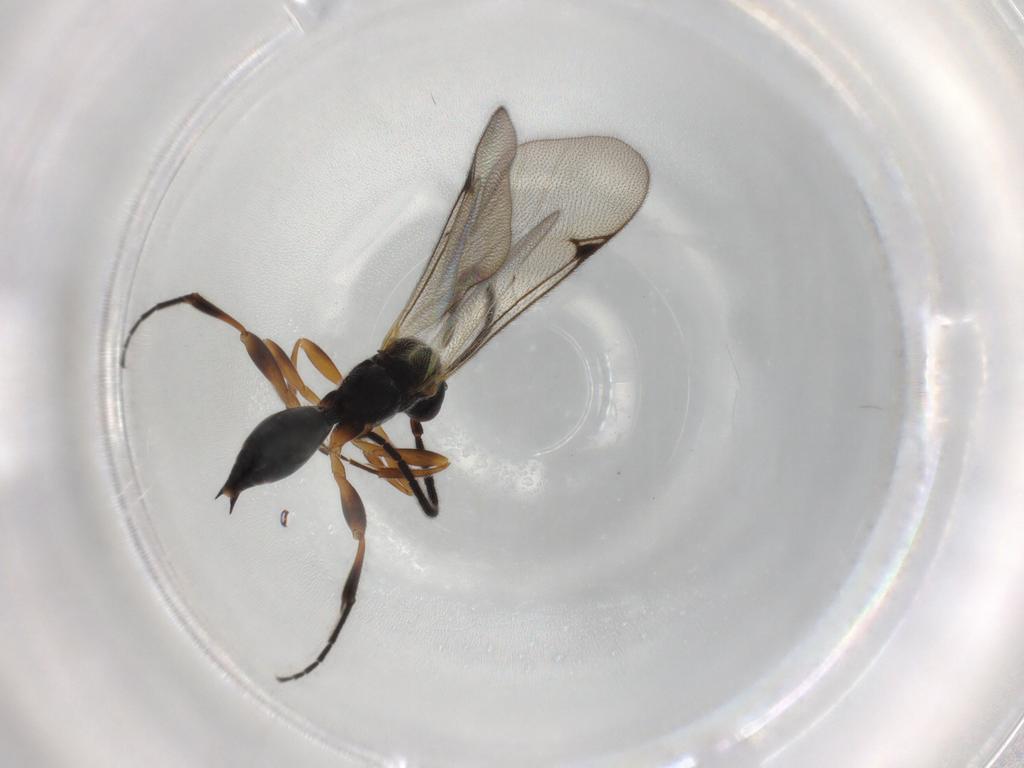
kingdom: Animalia
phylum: Arthropoda
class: Insecta
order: Hymenoptera
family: Proctotrupidae
